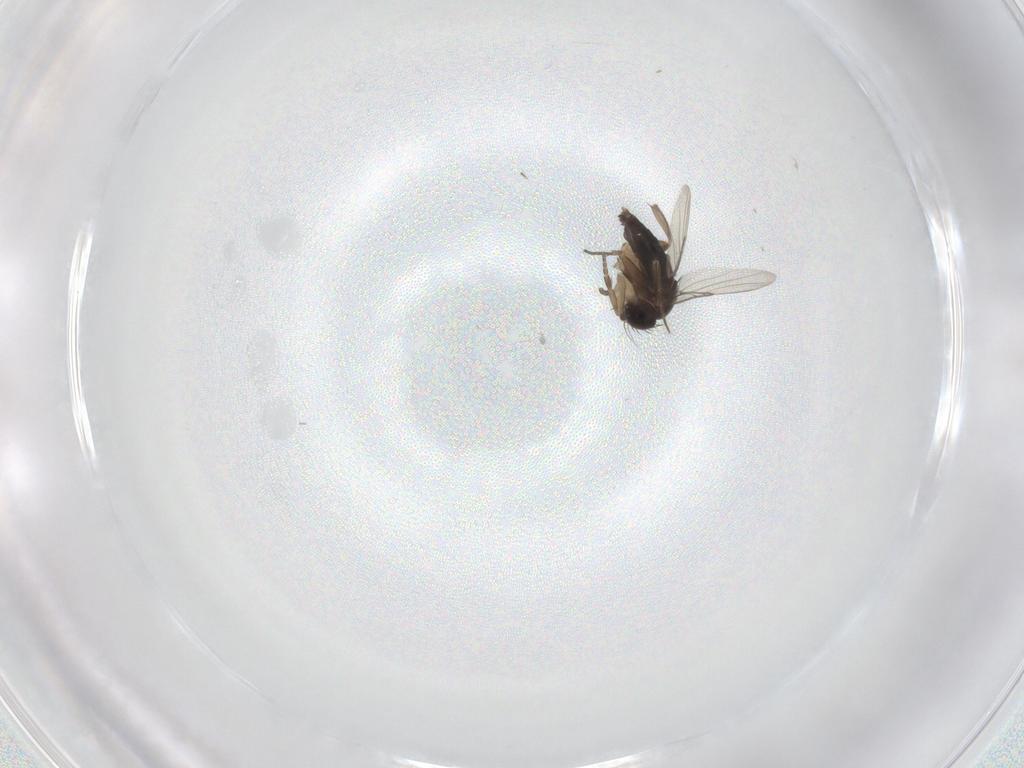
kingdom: Animalia
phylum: Arthropoda
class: Insecta
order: Diptera
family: Phoridae
